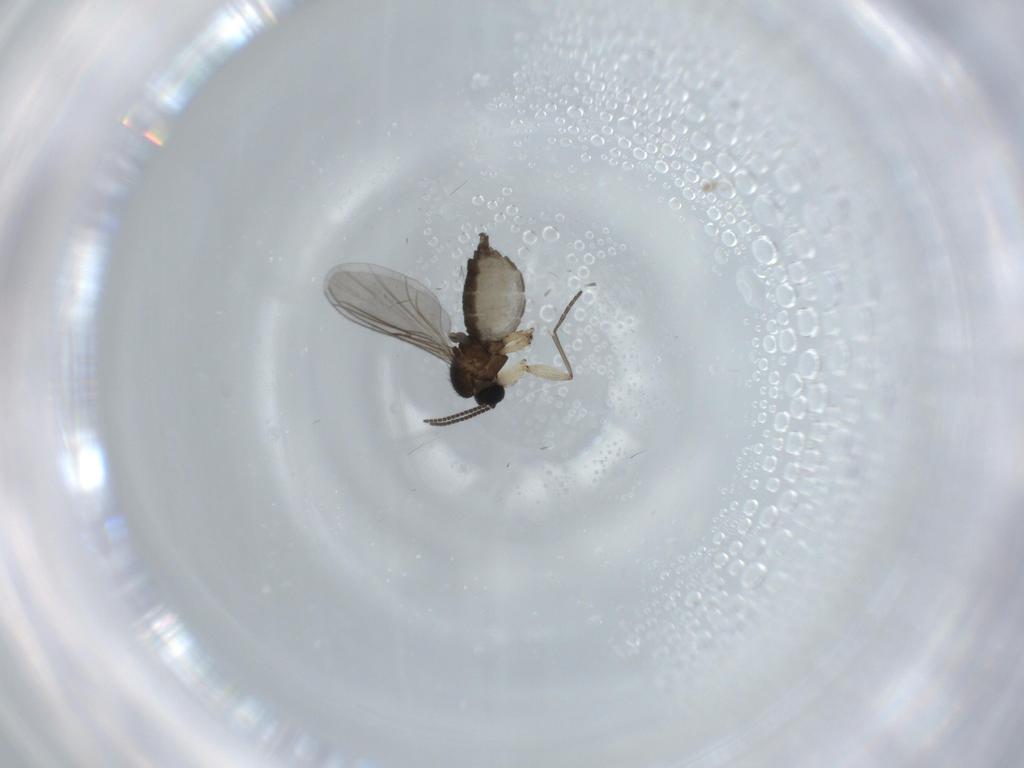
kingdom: Animalia
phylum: Arthropoda
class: Insecta
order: Diptera
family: Sciaridae
